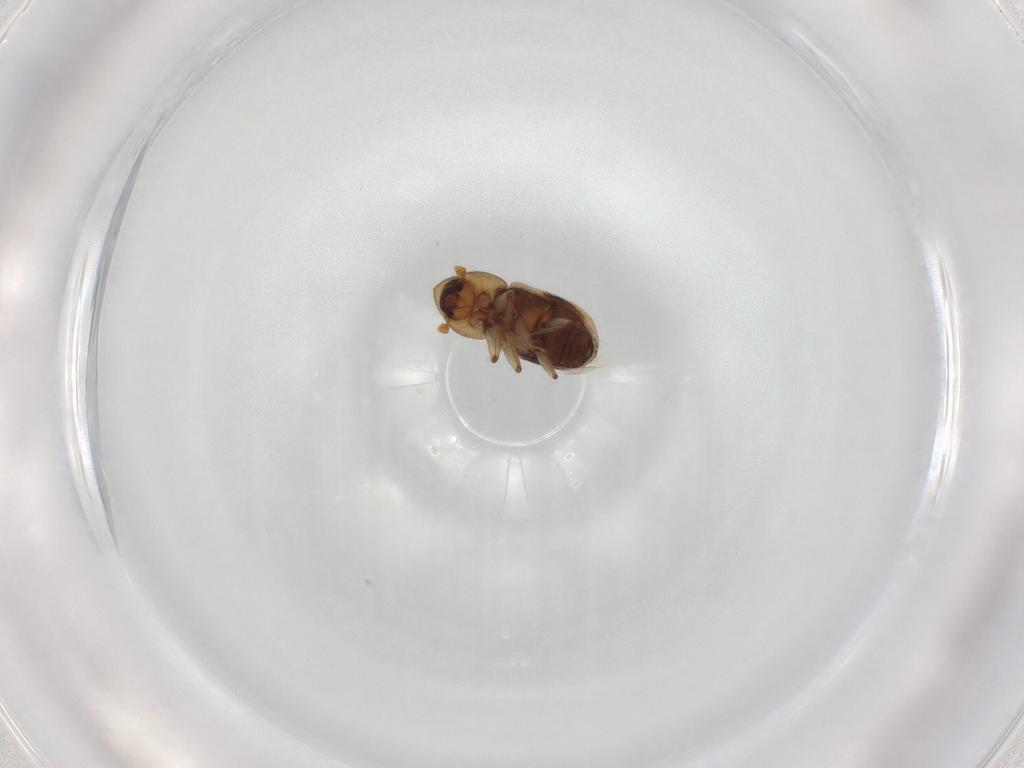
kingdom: Animalia
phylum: Arthropoda
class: Insecta
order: Coleoptera
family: Curculionidae
